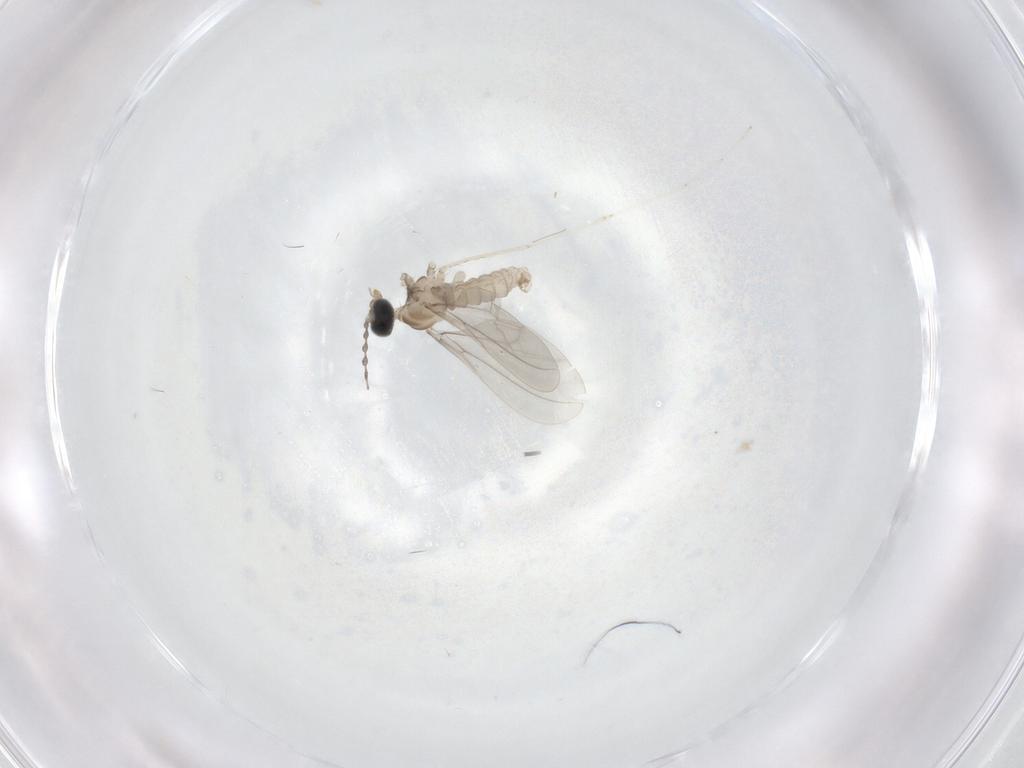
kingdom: Animalia
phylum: Arthropoda
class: Insecta
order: Diptera
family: Cecidomyiidae
